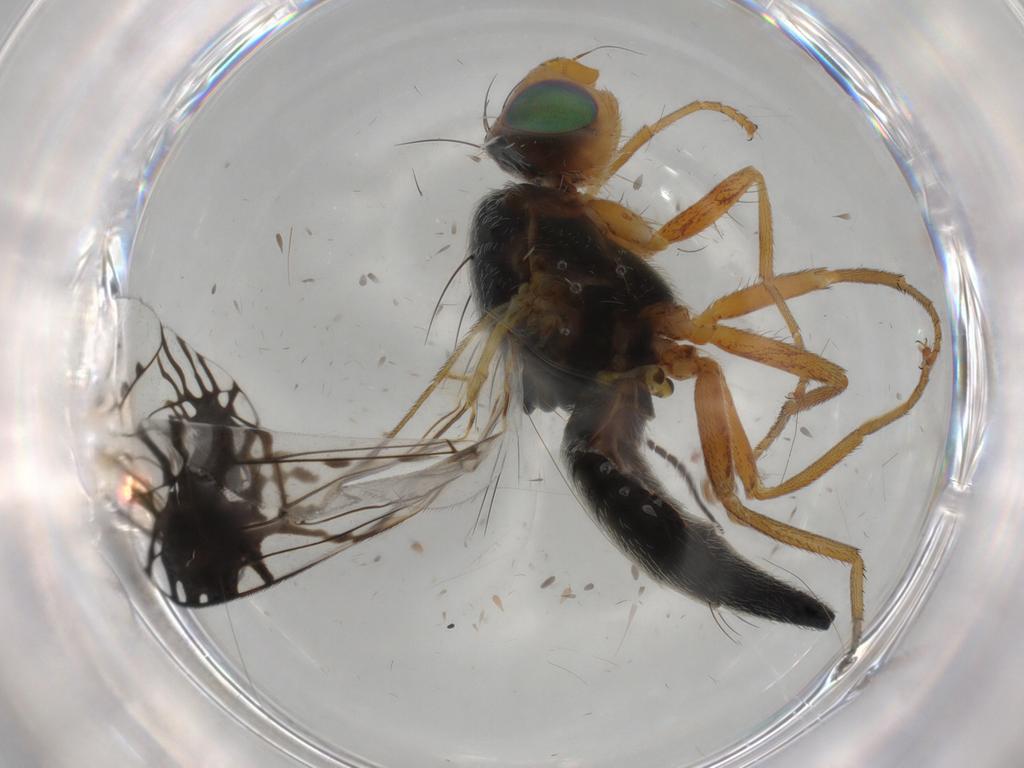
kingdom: Animalia
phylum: Arthropoda
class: Insecta
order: Diptera
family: Tephritidae
